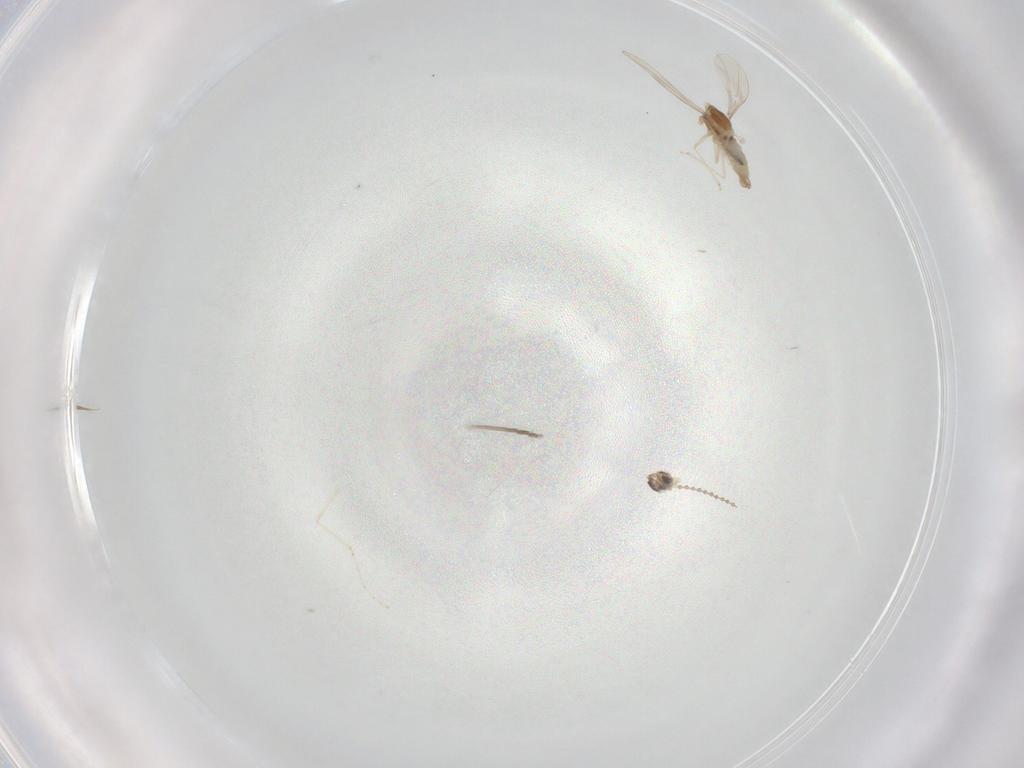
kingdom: Animalia
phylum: Arthropoda
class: Insecta
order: Diptera
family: Cecidomyiidae
